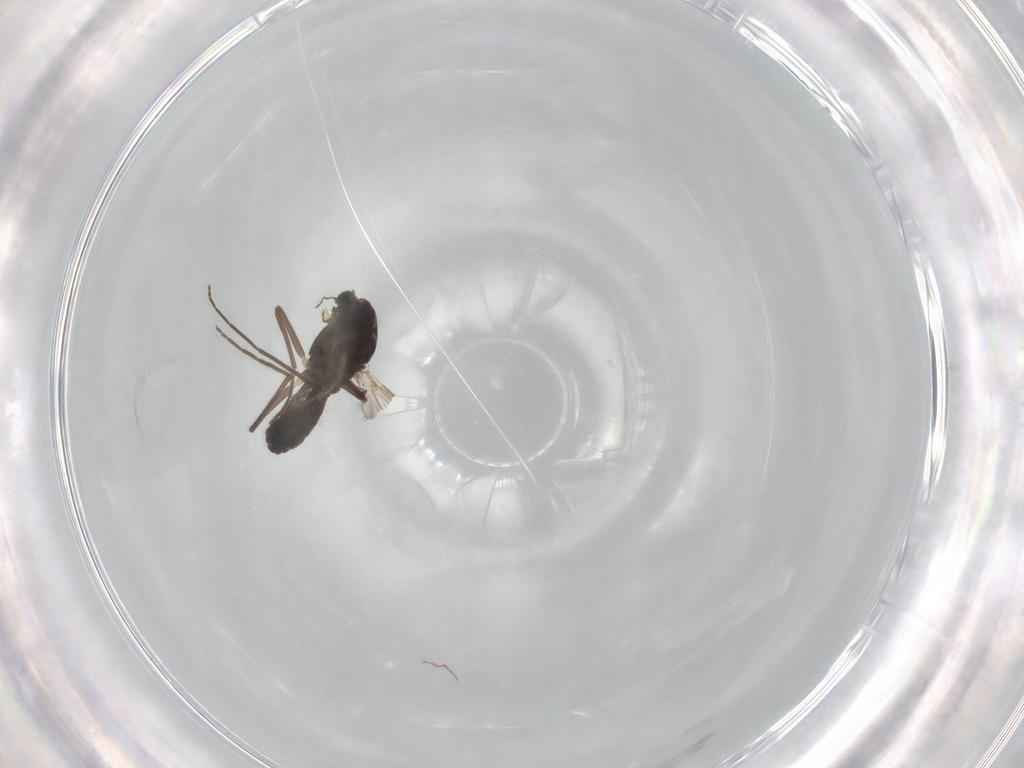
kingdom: Animalia
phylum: Arthropoda
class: Insecta
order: Diptera
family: Chironomidae
